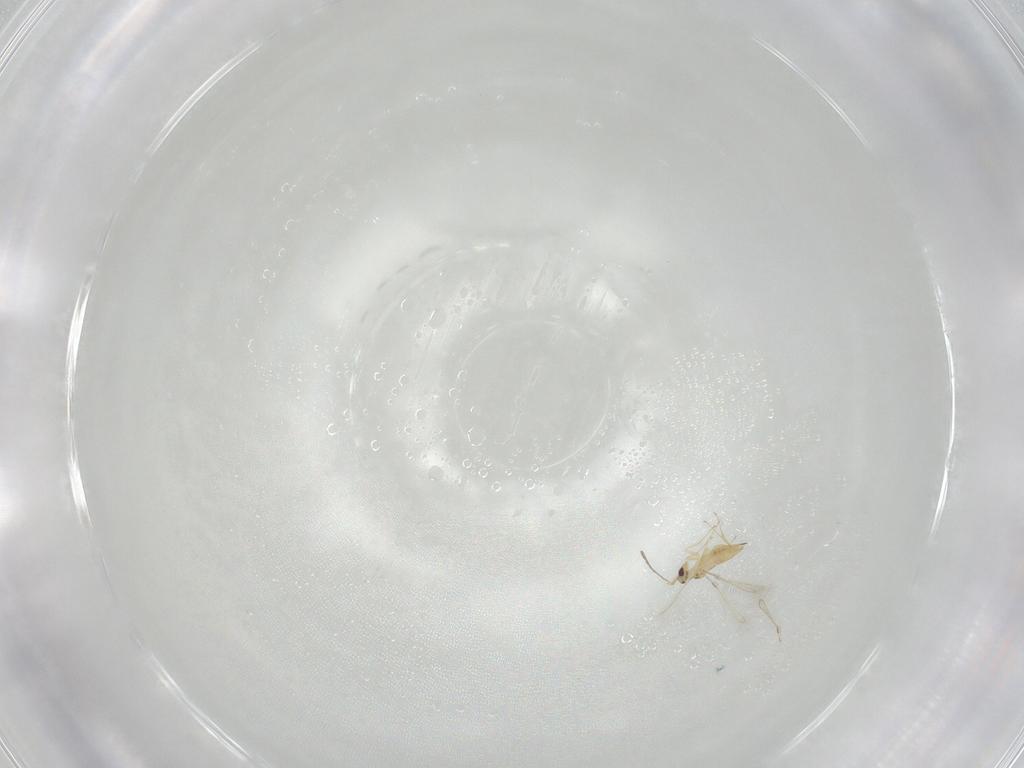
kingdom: Animalia
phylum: Arthropoda
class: Insecta
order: Hymenoptera
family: Mymaridae
